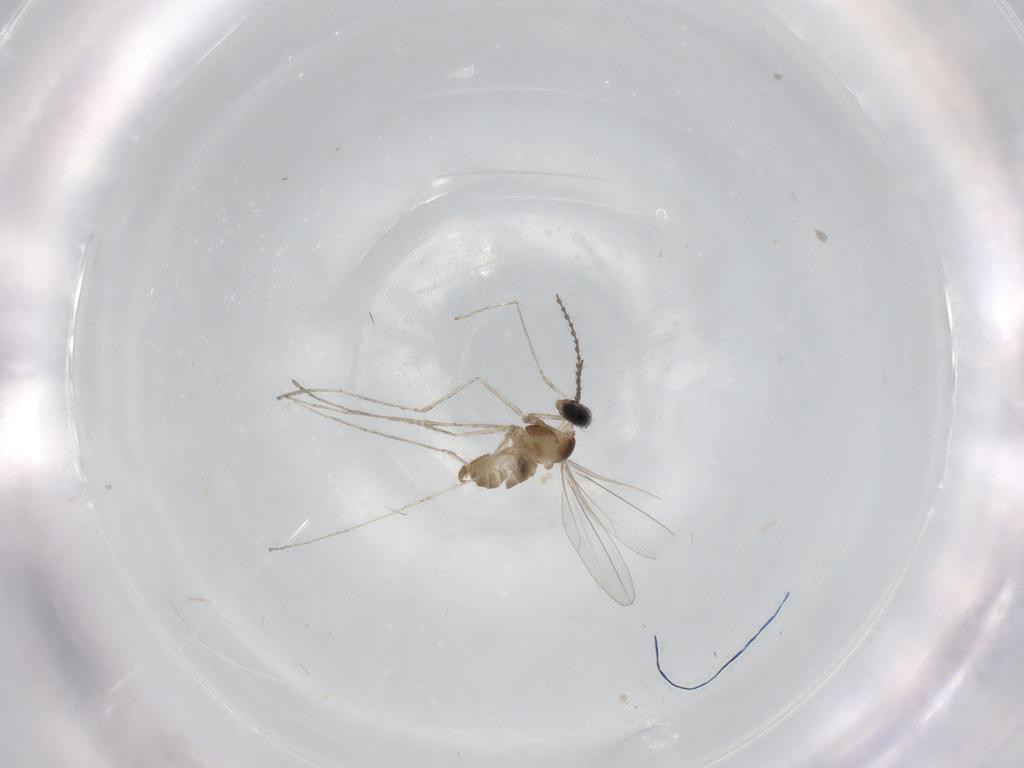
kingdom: Animalia
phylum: Arthropoda
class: Insecta
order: Diptera
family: Cecidomyiidae
